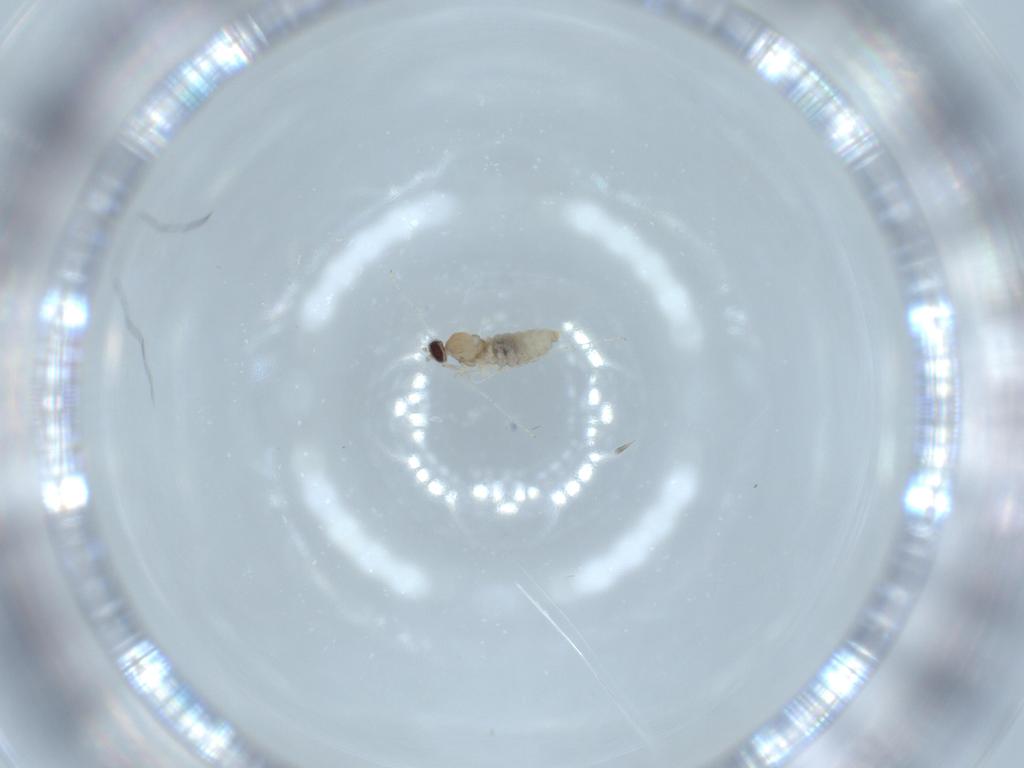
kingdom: Animalia
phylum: Arthropoda
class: Insecta
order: Diptera
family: Cecidomyiidae
